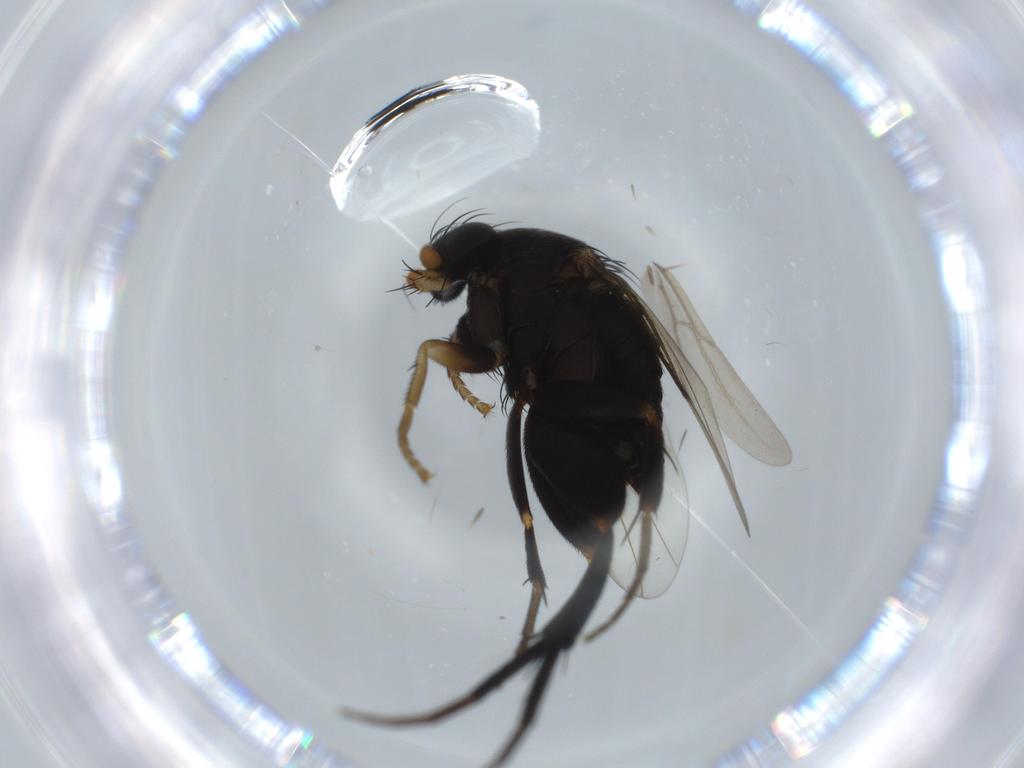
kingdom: Animalia
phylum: Arthropoda
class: Insecta
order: Diptera
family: Phoridae
